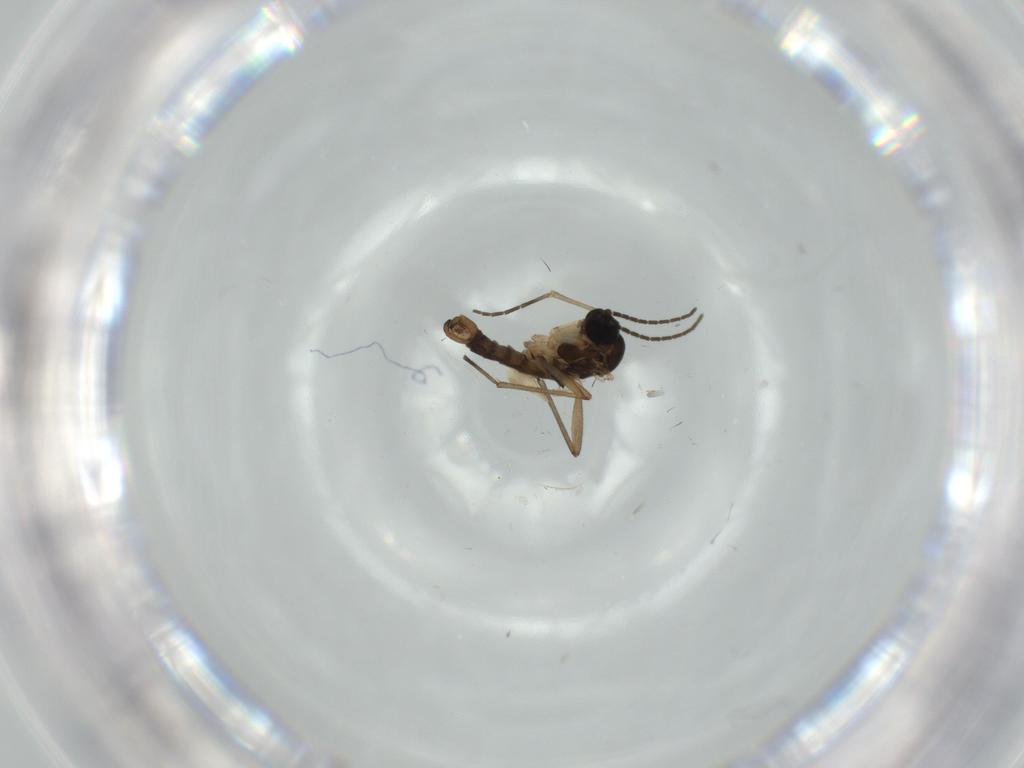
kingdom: Animalia
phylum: Arthropoda
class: Insecta
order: Diptera
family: Sciaridae
